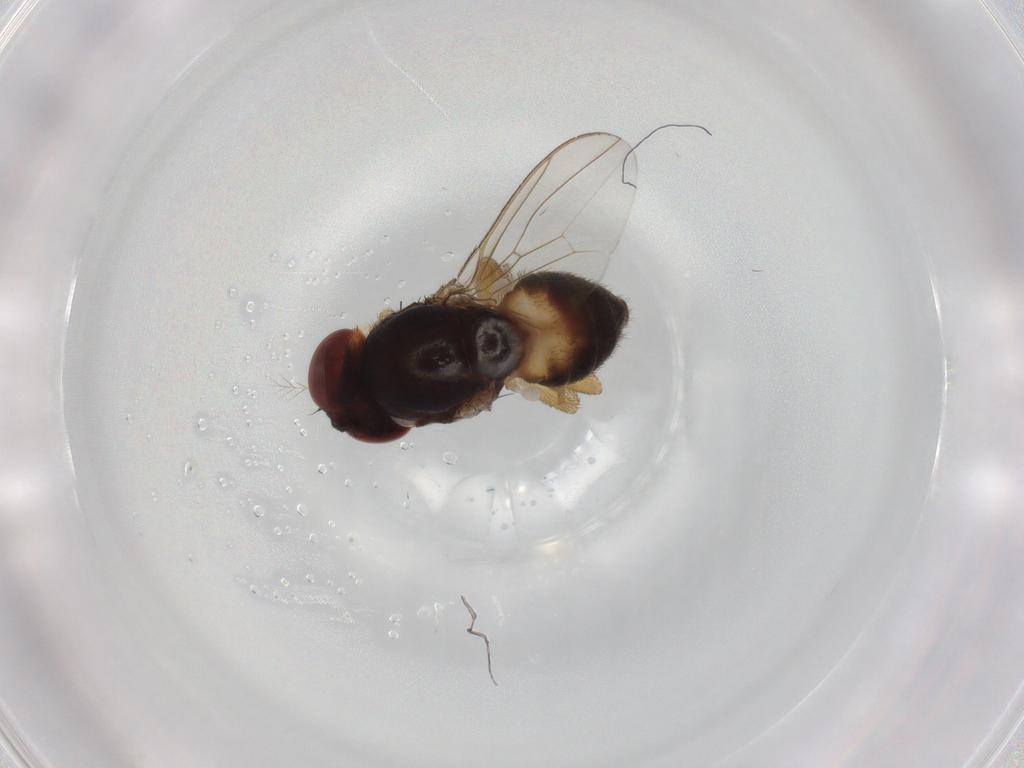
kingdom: Animalia
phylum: Arthropoda
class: Insecta
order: Diptera
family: Drosophilidae
